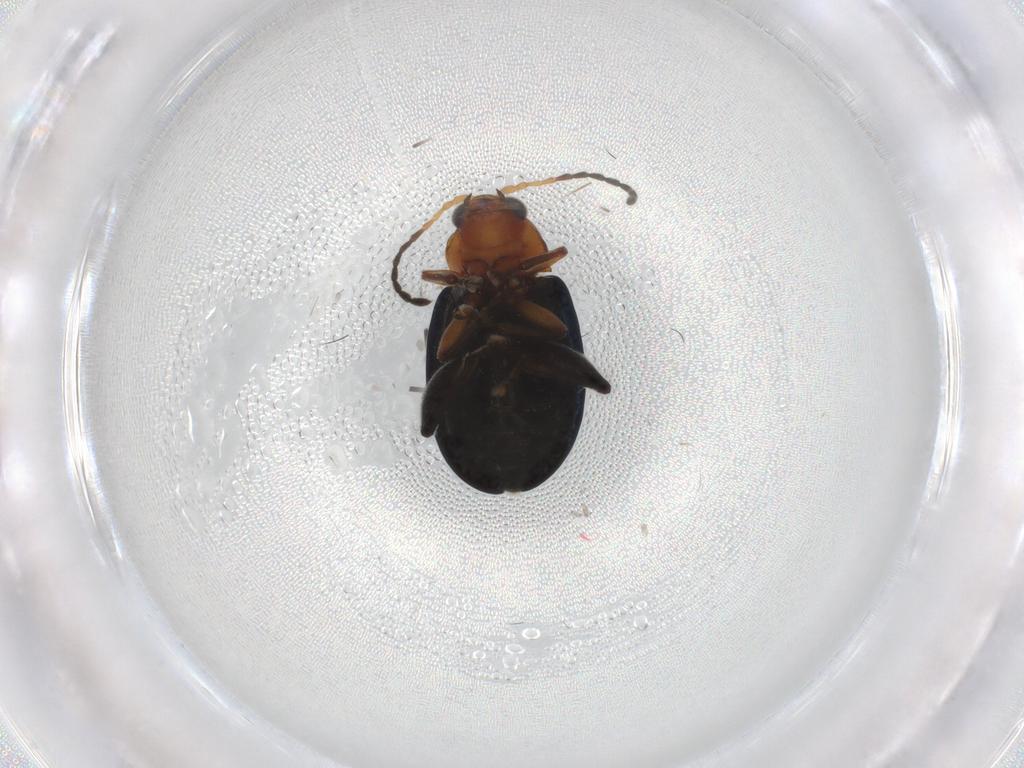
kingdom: Animalia
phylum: Arthropoda
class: Insecta
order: Coleoptera
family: Chrysomelidae
